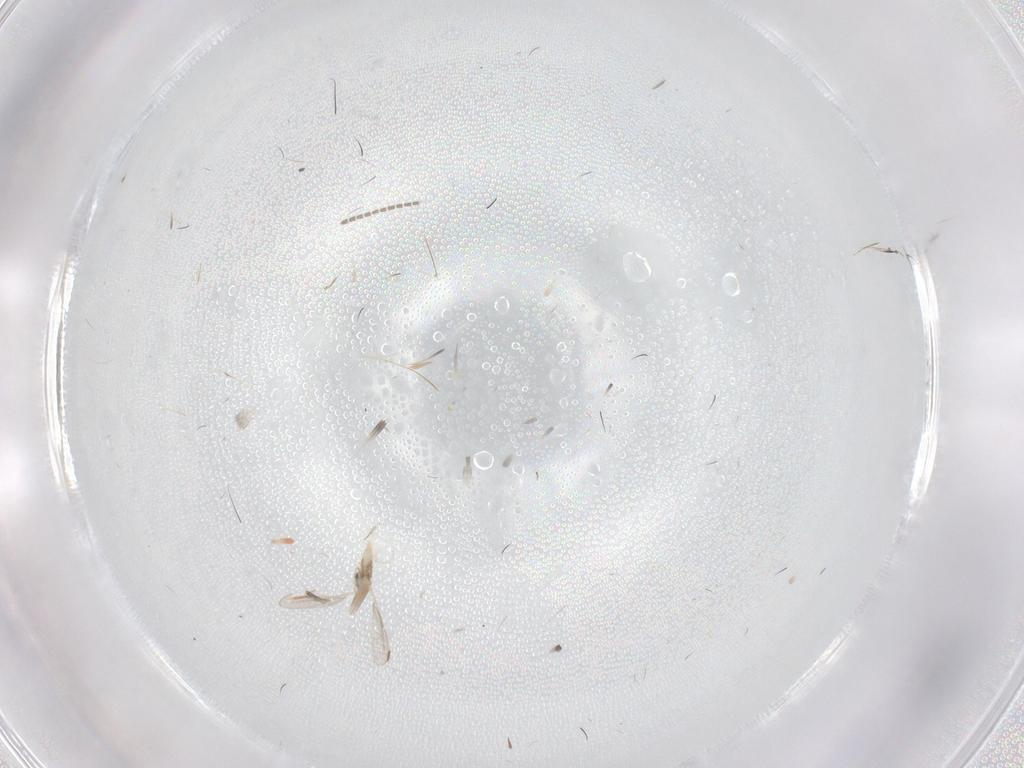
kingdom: Animalia
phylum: Arthropoda
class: Insecta
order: Diptera
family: Cecidomyiidae
